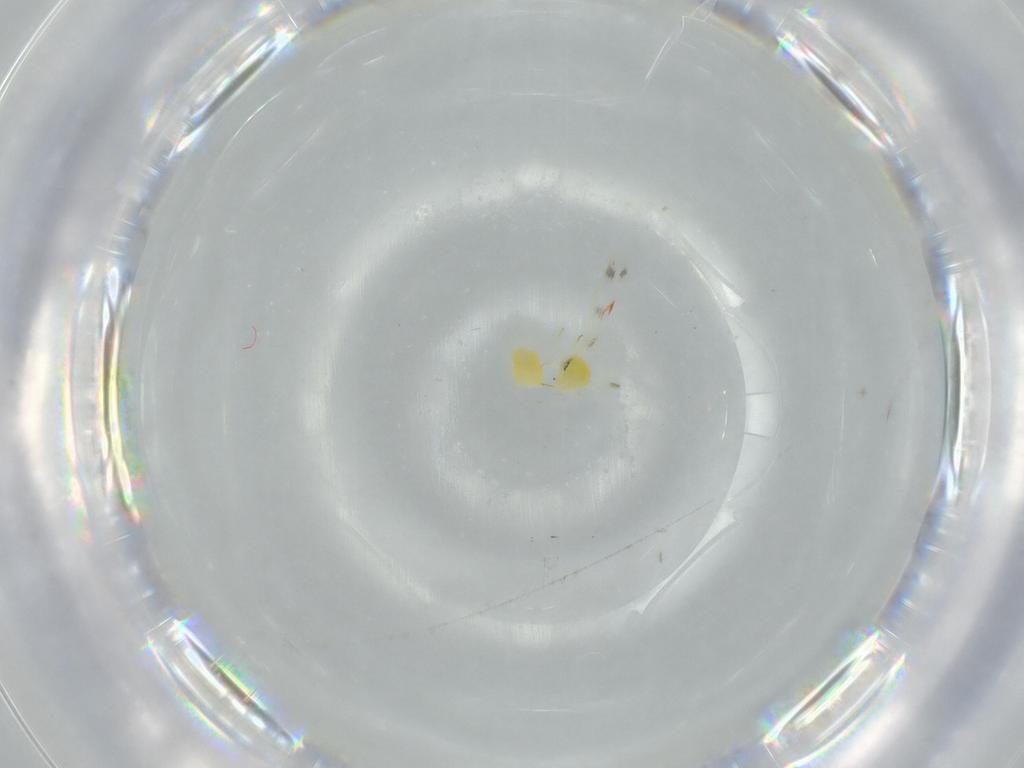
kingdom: Animalia
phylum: Arthropoda
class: Insecta
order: Hemiptera
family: Aleyrodidae
